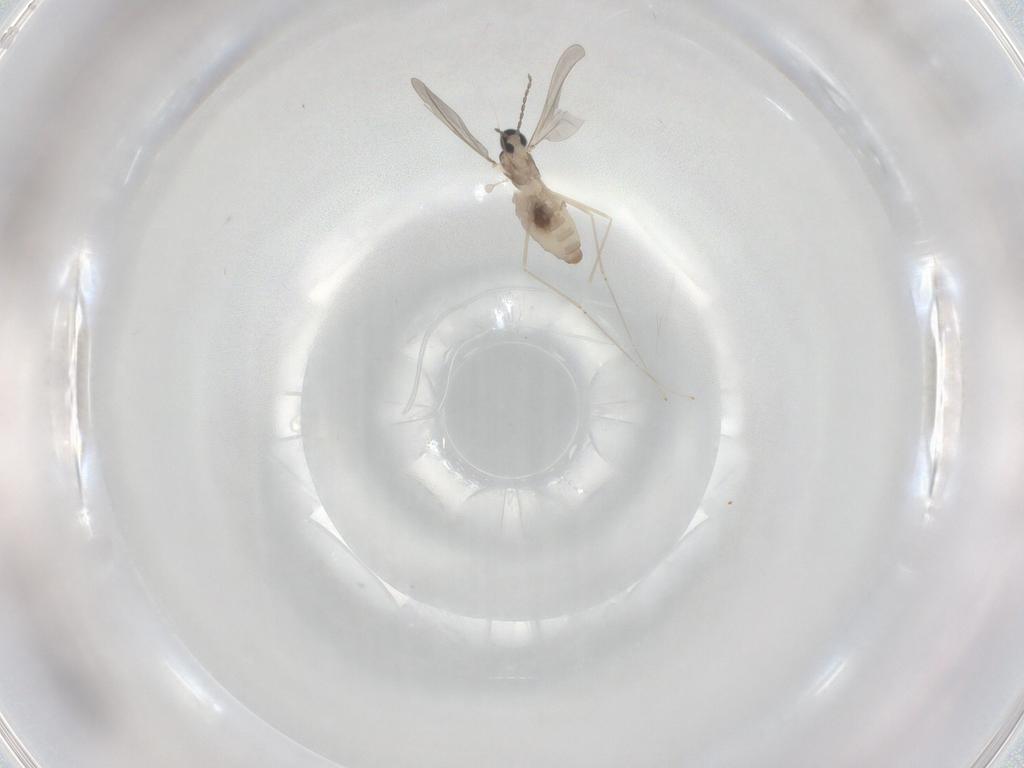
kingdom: Animalia
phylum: Arthropoda
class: Insecta
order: Diptera
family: Cecidomyiidae
